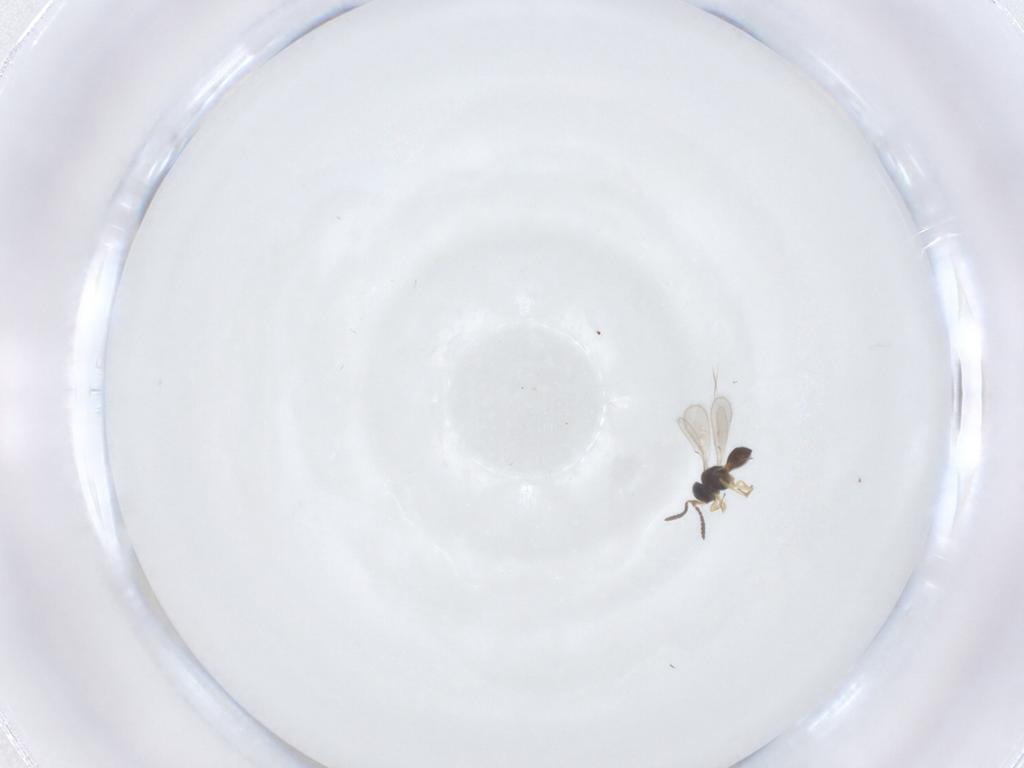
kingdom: Animalia
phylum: Arthropoda
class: Insecta
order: Hymenoptera
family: Scelionidae
